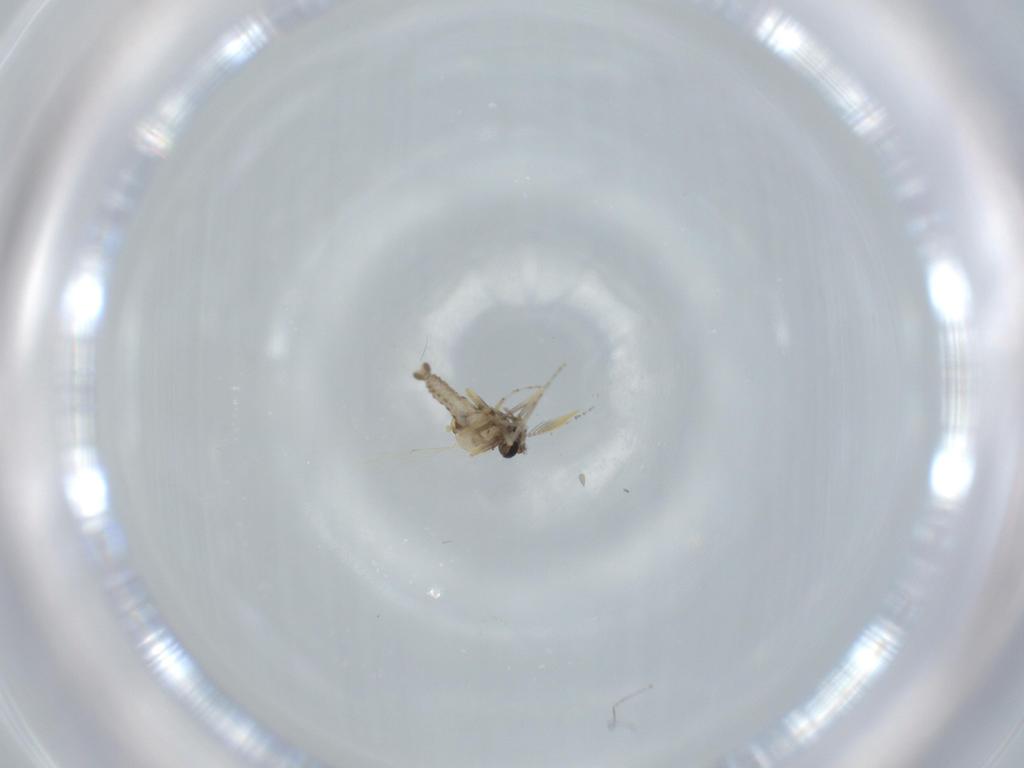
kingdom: Animalia
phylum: Arthropoda
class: Insecta
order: Diptera
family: Ceratopogonidae
